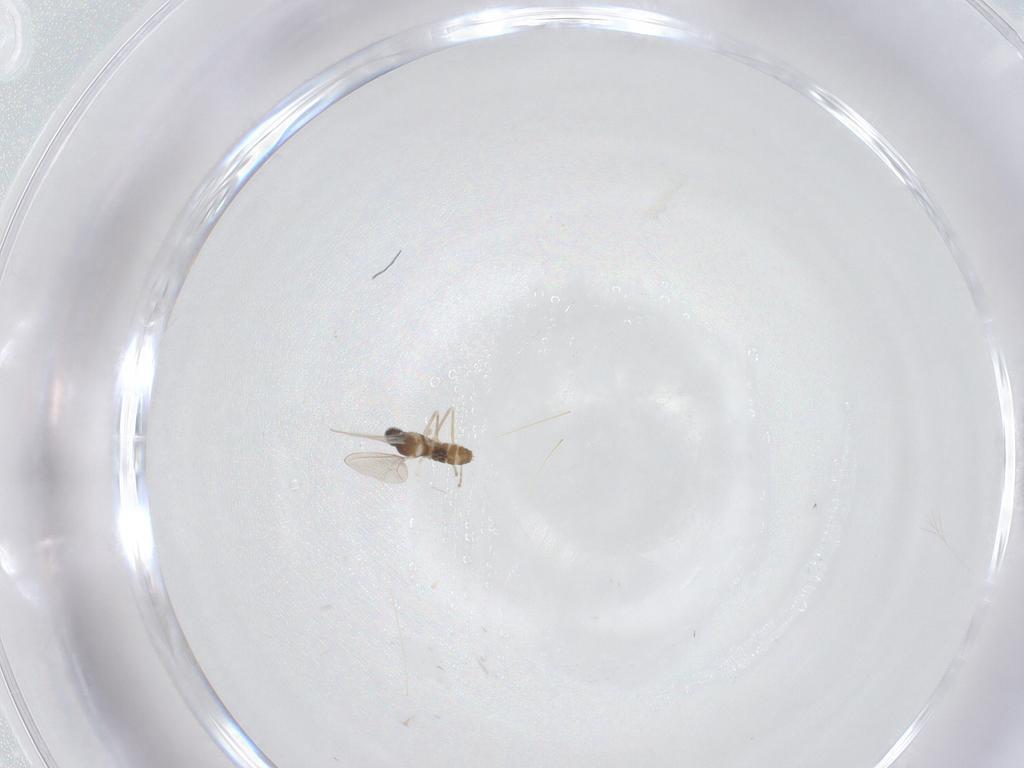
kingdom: Animalia
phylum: Arthropoda
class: Insecta
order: Diptera
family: Cecidomyiidae
